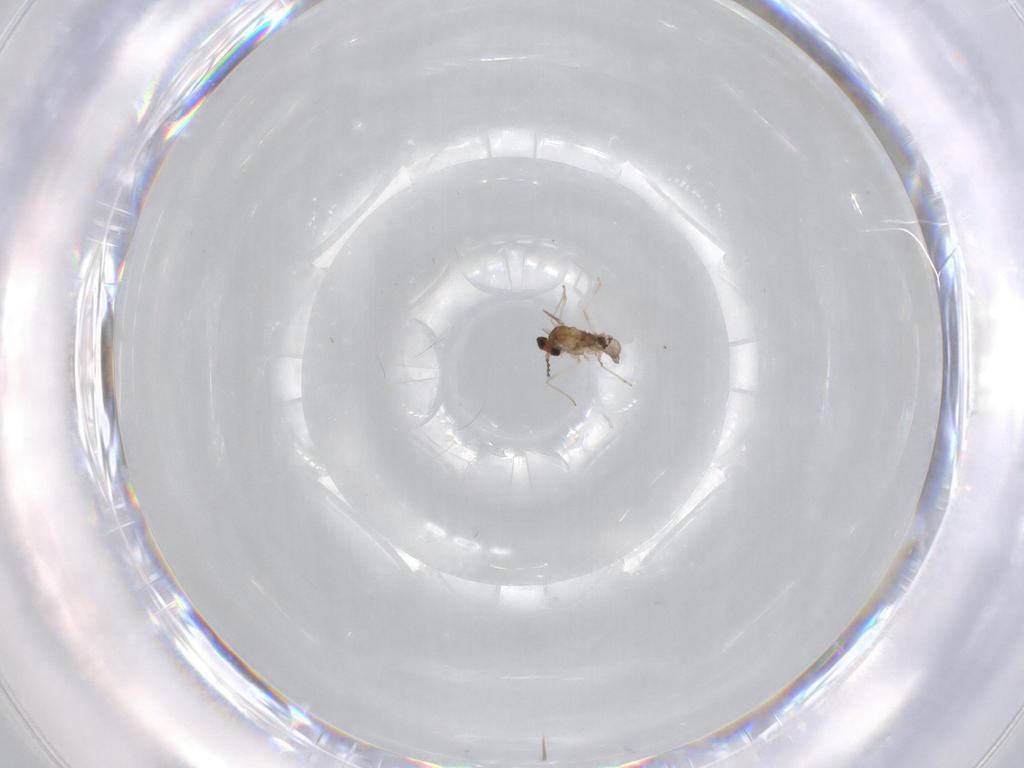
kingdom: Animalia
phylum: Arthropoda
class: Insecta
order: Diptera
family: Cecidomyiidae
